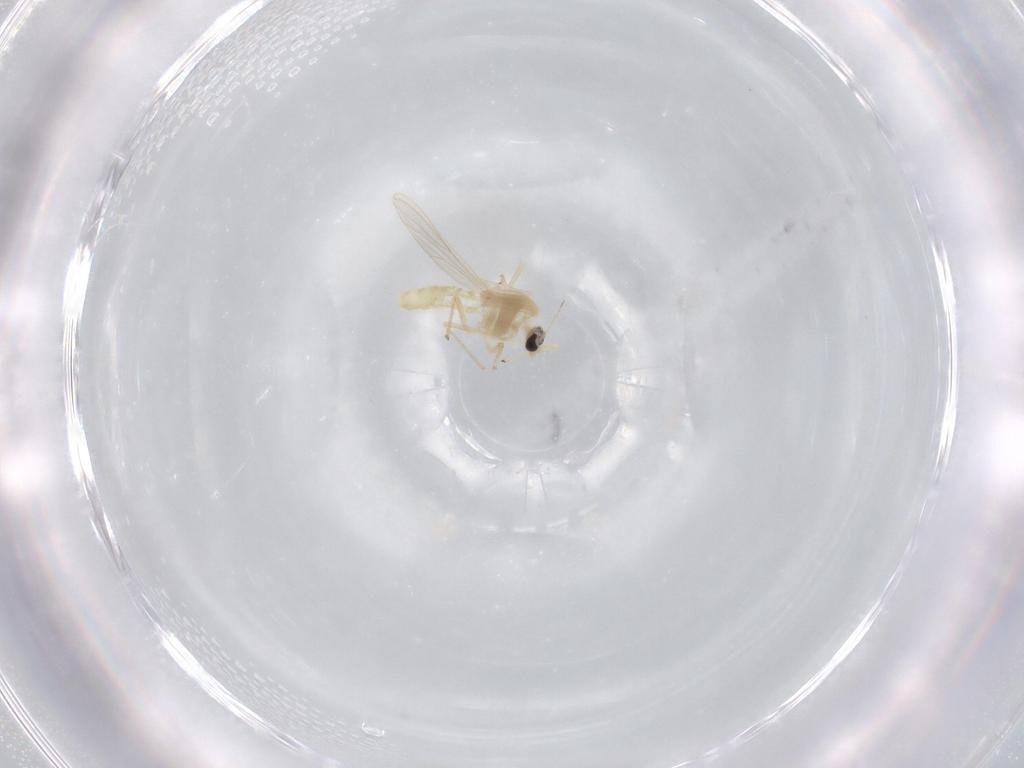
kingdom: Animalia
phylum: Arthropoda
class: Insecta
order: Diptera
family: Chironomidae
